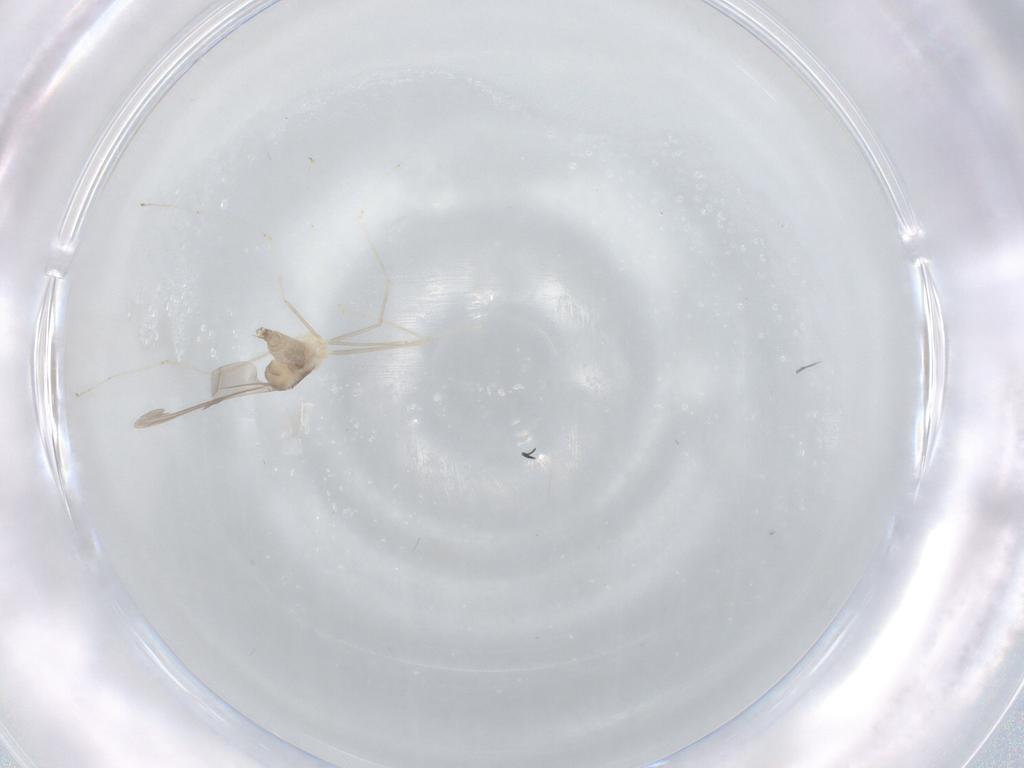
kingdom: Animalia
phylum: Arthropoda
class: Insecta
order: Diptera
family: Cecidomyiidae
